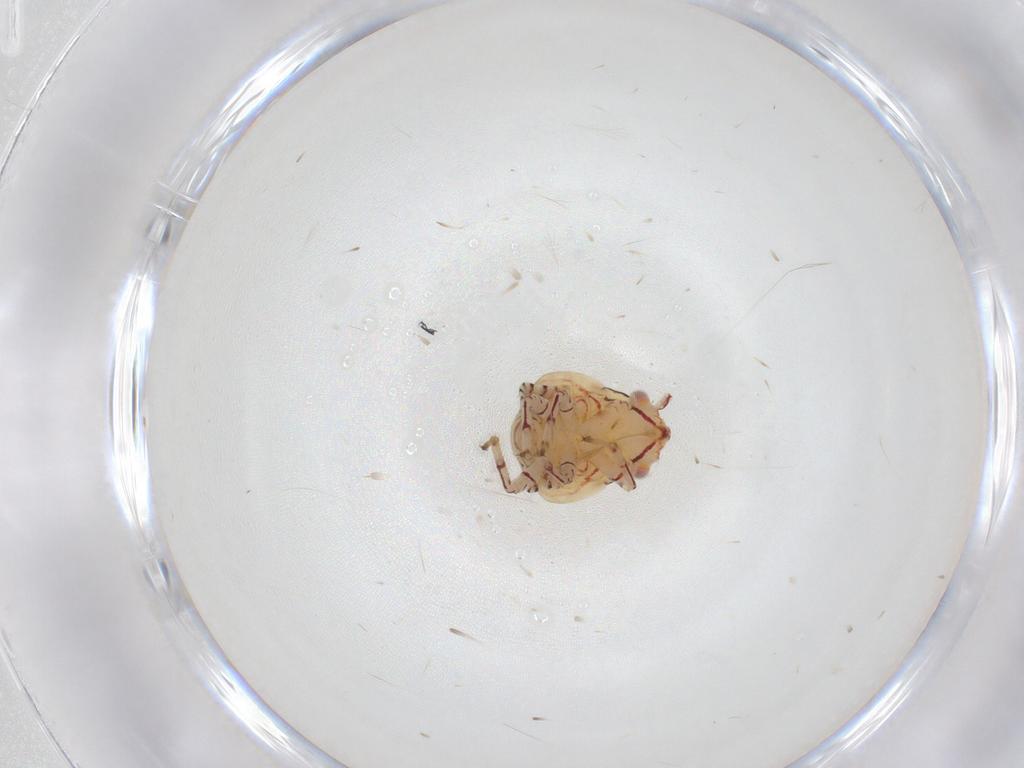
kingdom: Animalia
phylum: Arthropoda
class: Insecta
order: Hemiptera
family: Miridae
